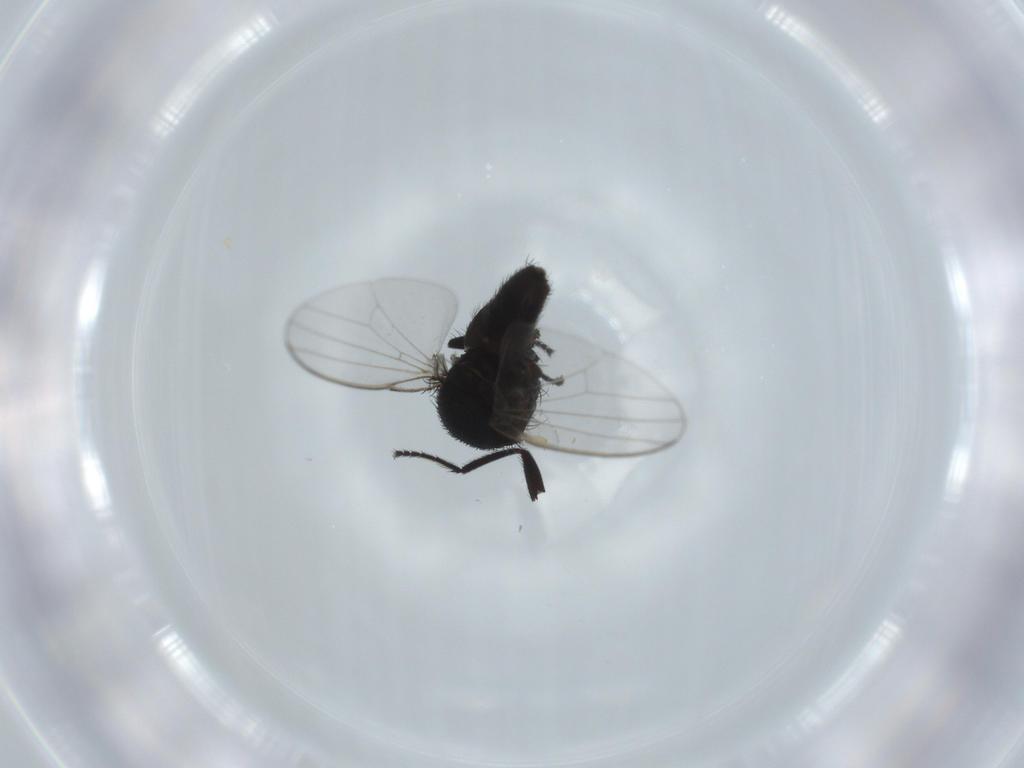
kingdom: Animalia
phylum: Arthropoda
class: Insecta
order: Diptera
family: Milichiidae
